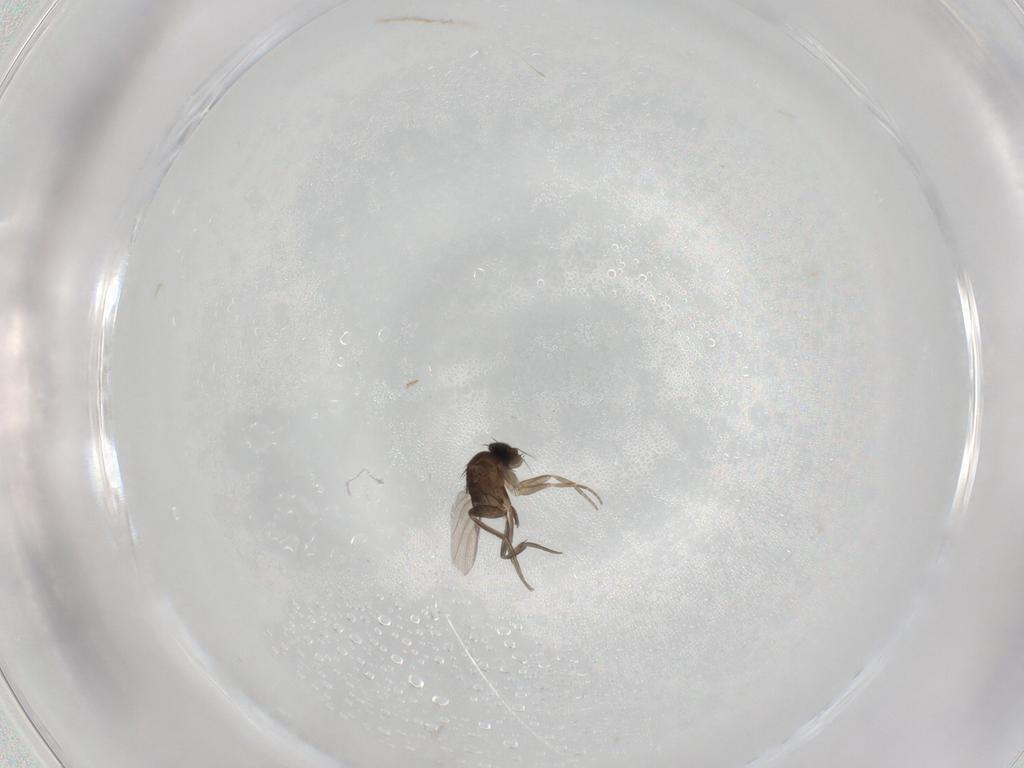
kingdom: Animalia
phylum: Arthropoda
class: Insecta
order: Diptera
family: Phoridae
